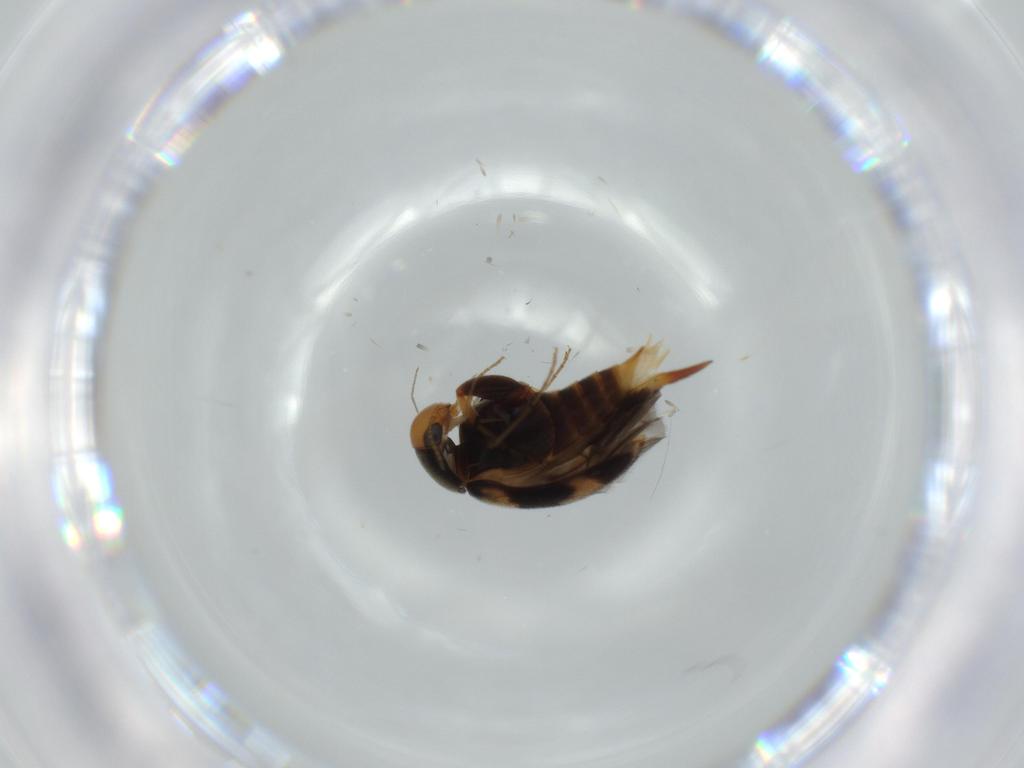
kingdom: Animalia
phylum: Arthropoda
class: Insecta
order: Coleoptera
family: Mordellidae
